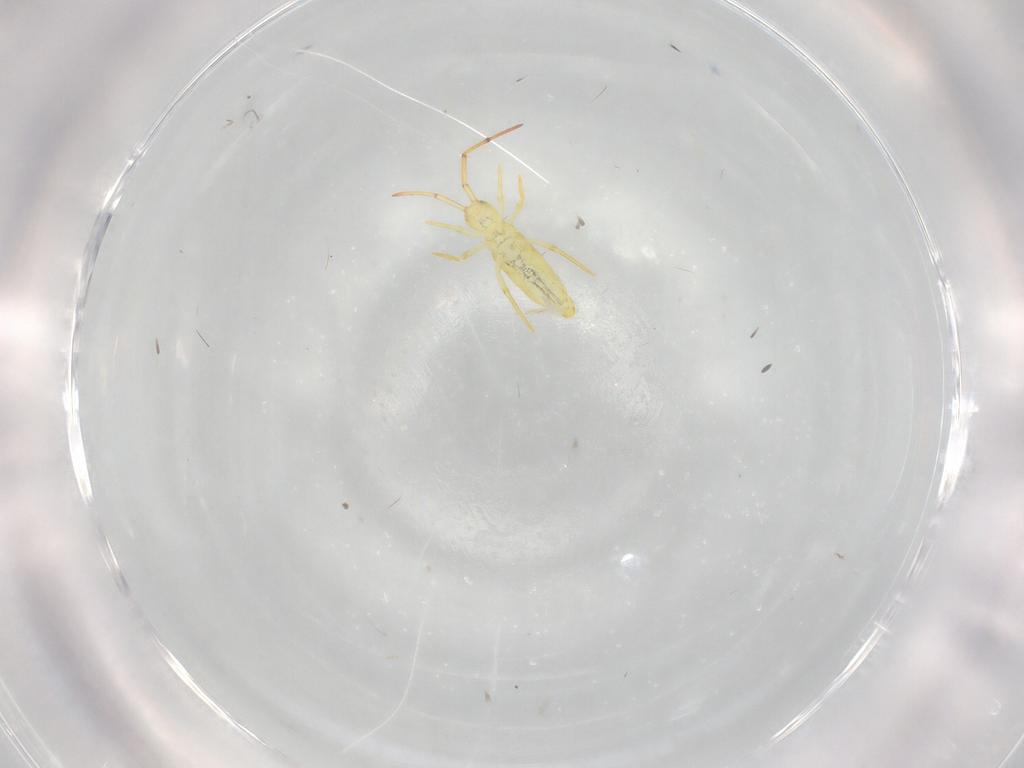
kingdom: Animalia
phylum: Arthropoda
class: Collembola
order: Entomobryomorpha
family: Paronellidae
